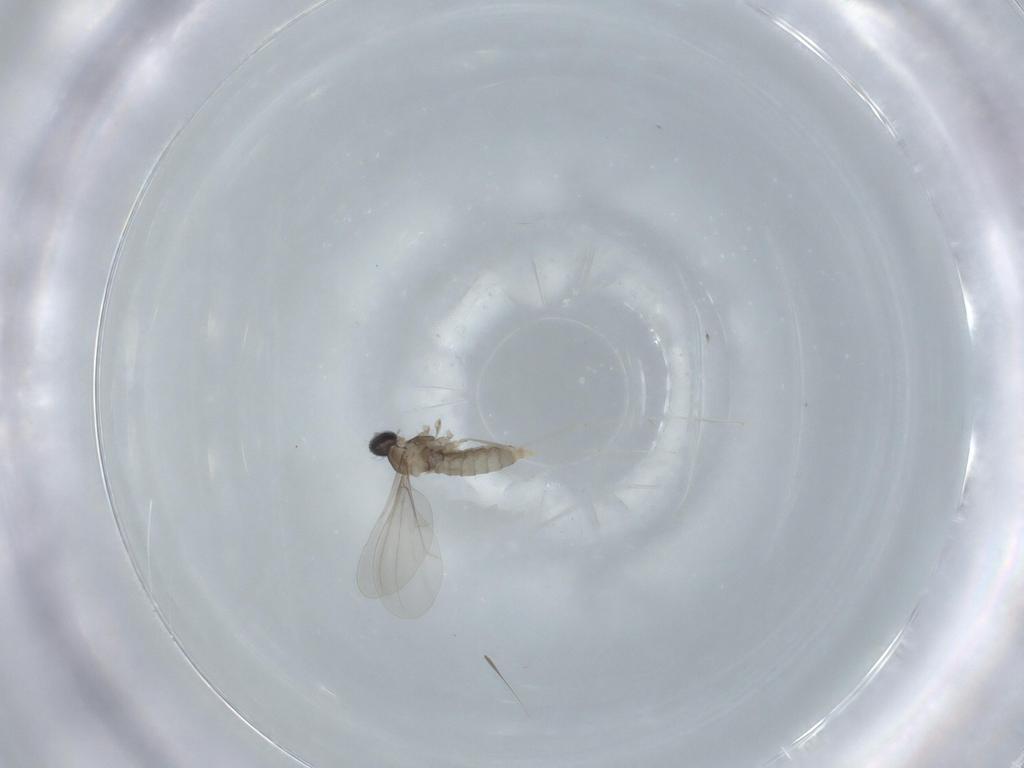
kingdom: Animalia
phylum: Arthropoda
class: Insecta
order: Diptera
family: Cecidomyiidae
